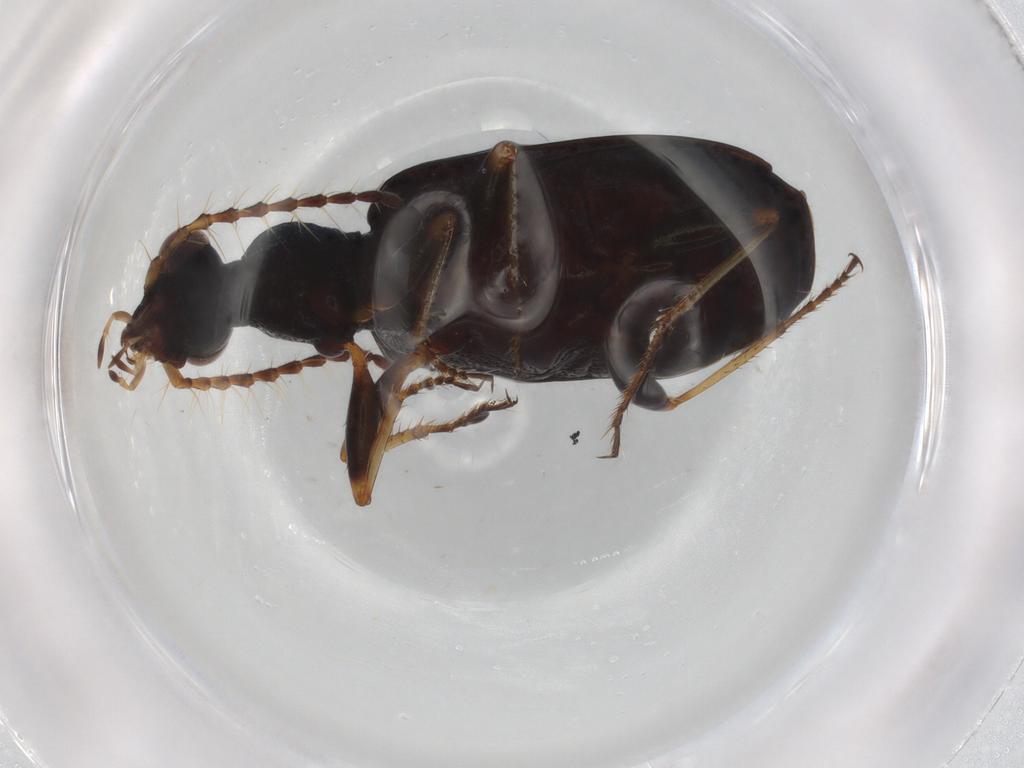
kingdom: Animalia
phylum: Arthropoda
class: Insecta
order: Coleoptera
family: Carabidae
